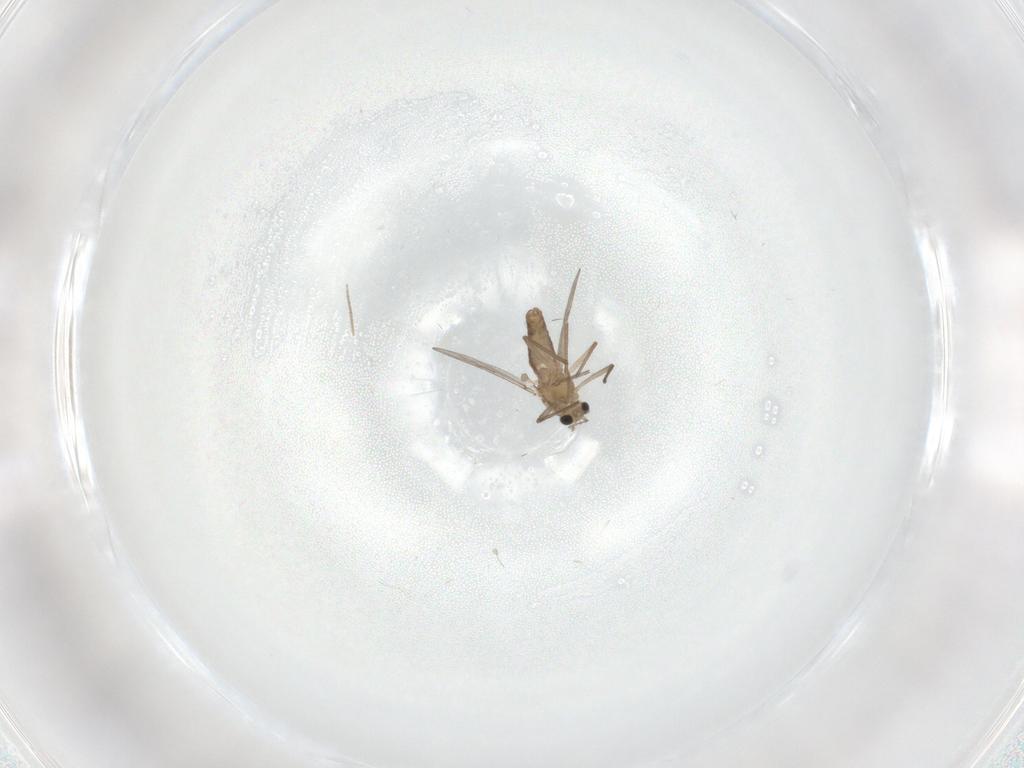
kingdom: Animalia
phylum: Arthropoda
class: Insecta
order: Diptera
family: Chironomidae
